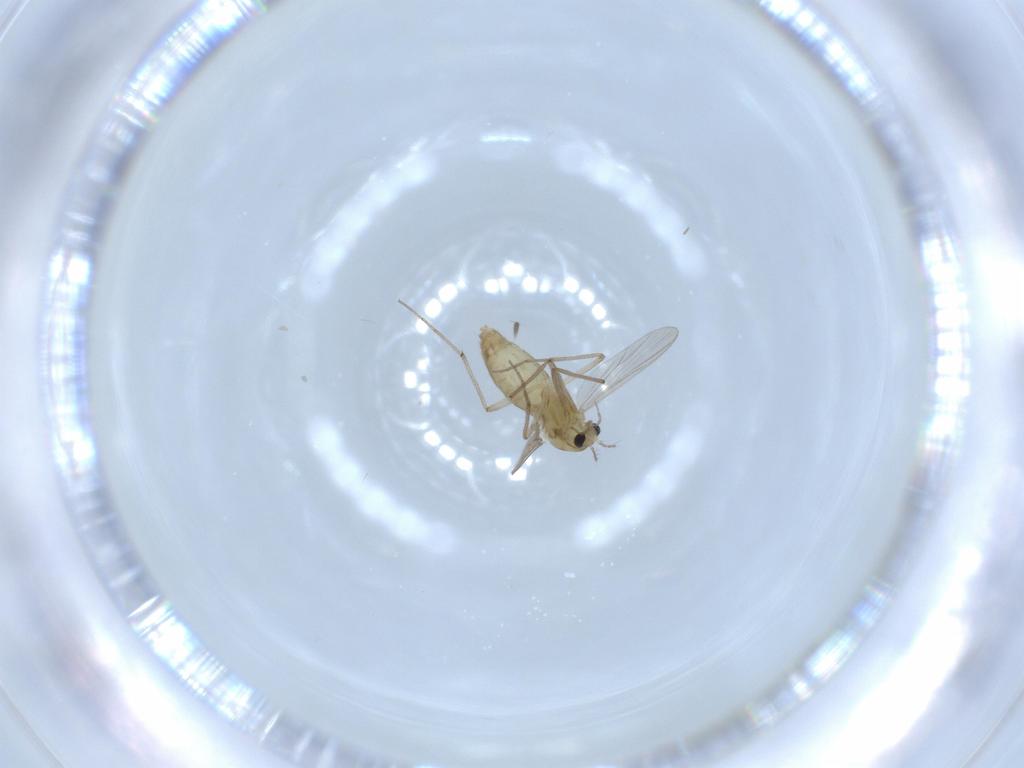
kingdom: Animalia
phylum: Arthropoda
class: Insecta
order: Diptera
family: Chironomidae
